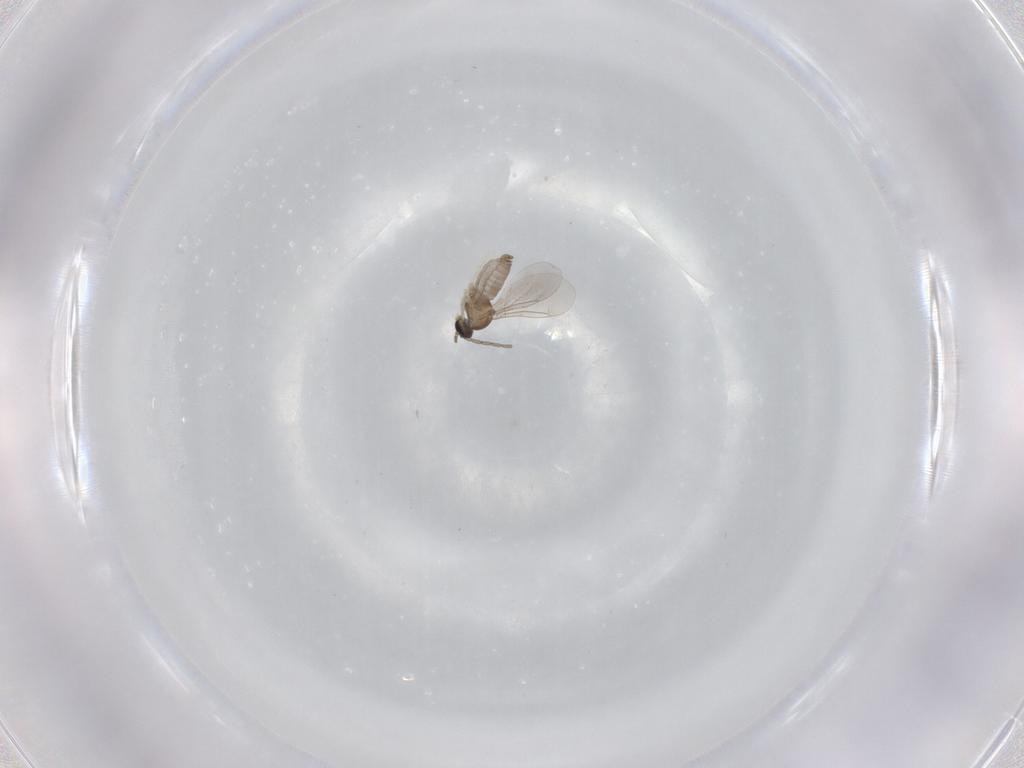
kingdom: Animalia
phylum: Arthropoda
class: Insecta
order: Diptera
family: Cecidomyiidae
